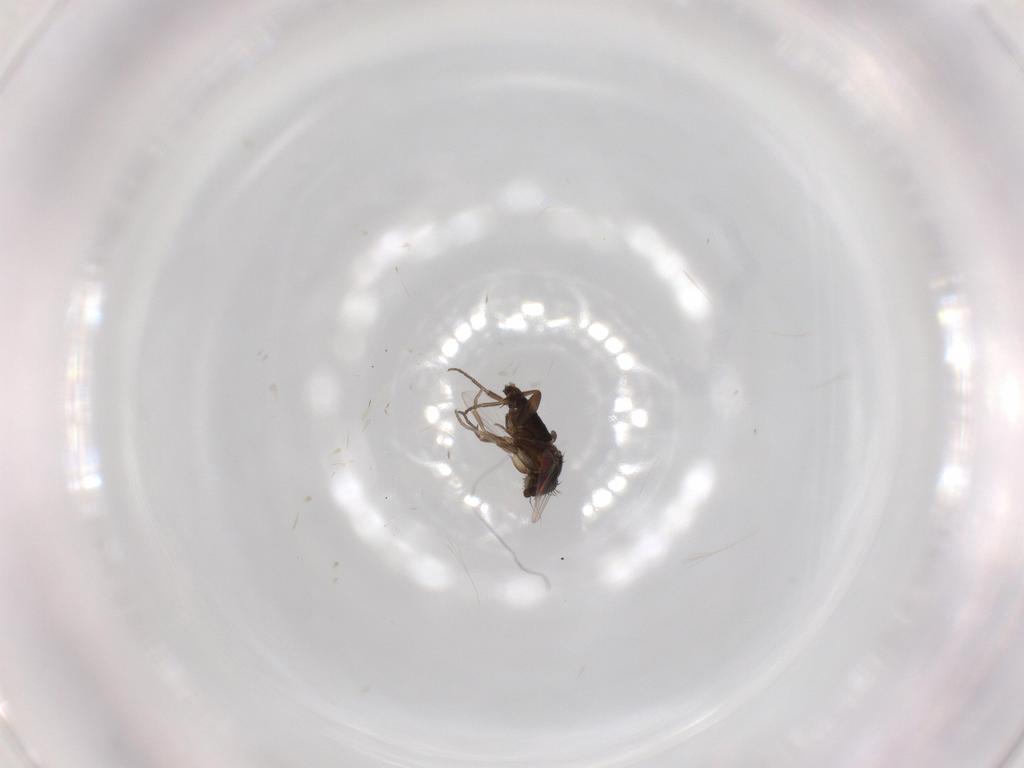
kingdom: Animalia
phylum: Arthropoda
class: Insecta
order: Diptera
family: Phoridae
